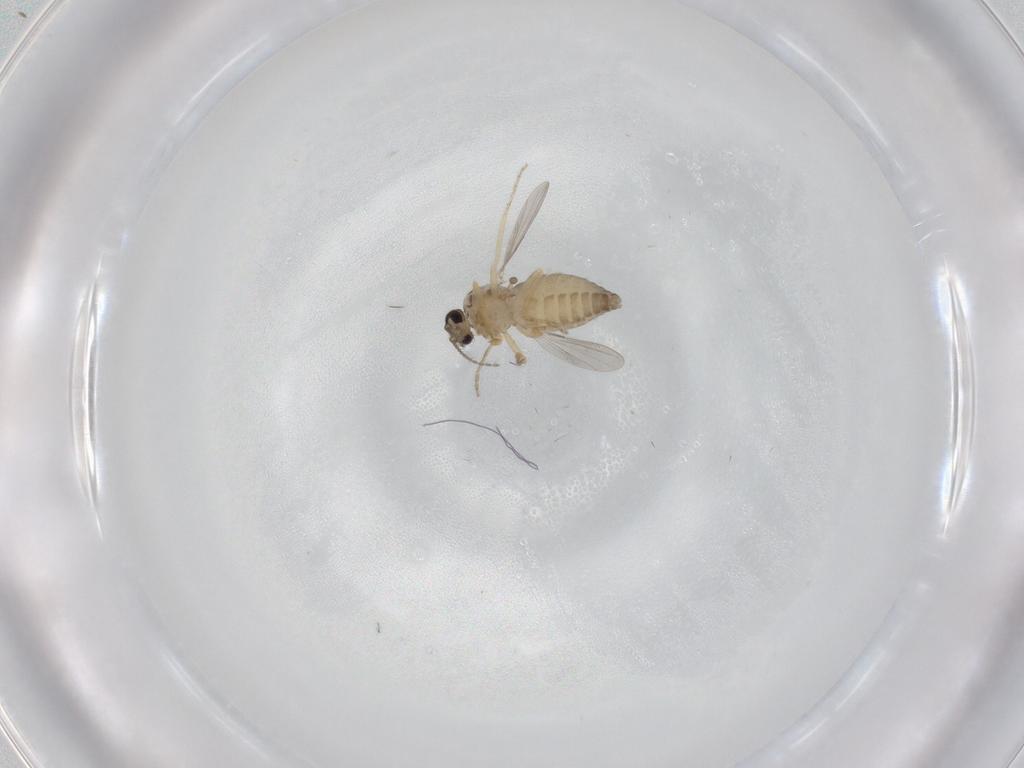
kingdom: Animalia
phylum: Arthropoda
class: Insecta
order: Diptera
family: Ceratopogonidae
